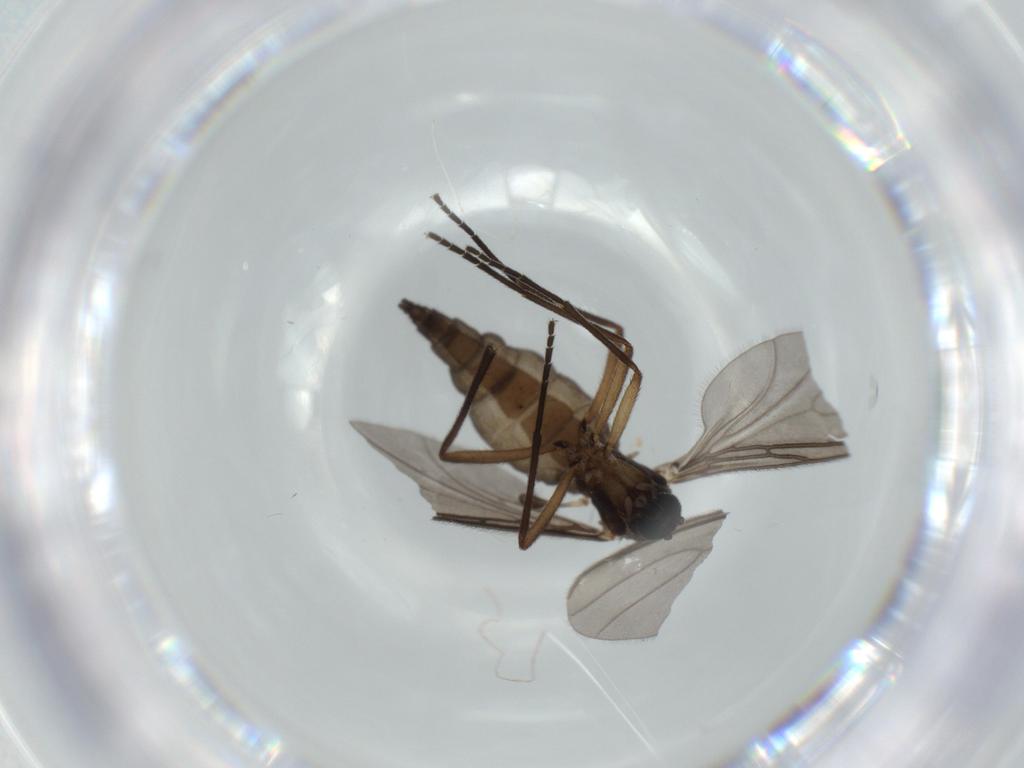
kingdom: Animalia
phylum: Arthropoda
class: Insecta
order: Diptera
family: Sciaridae
